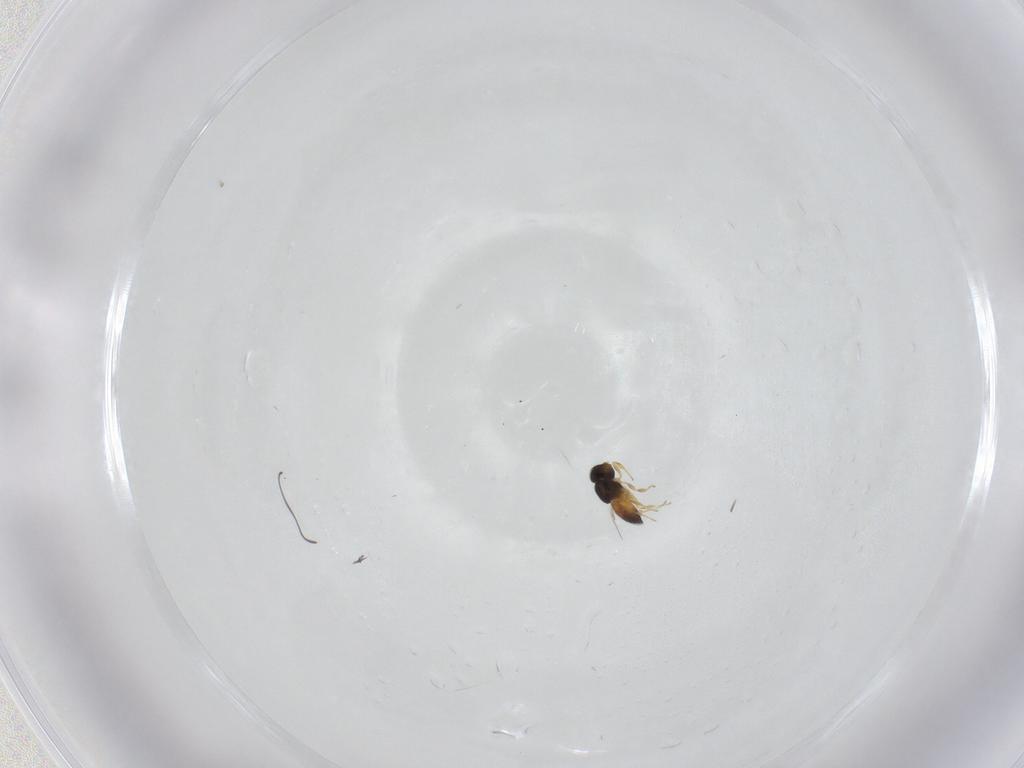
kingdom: Animalia
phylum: Arthropoda
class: Insecta
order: Hymenoptera
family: Scelionidae
